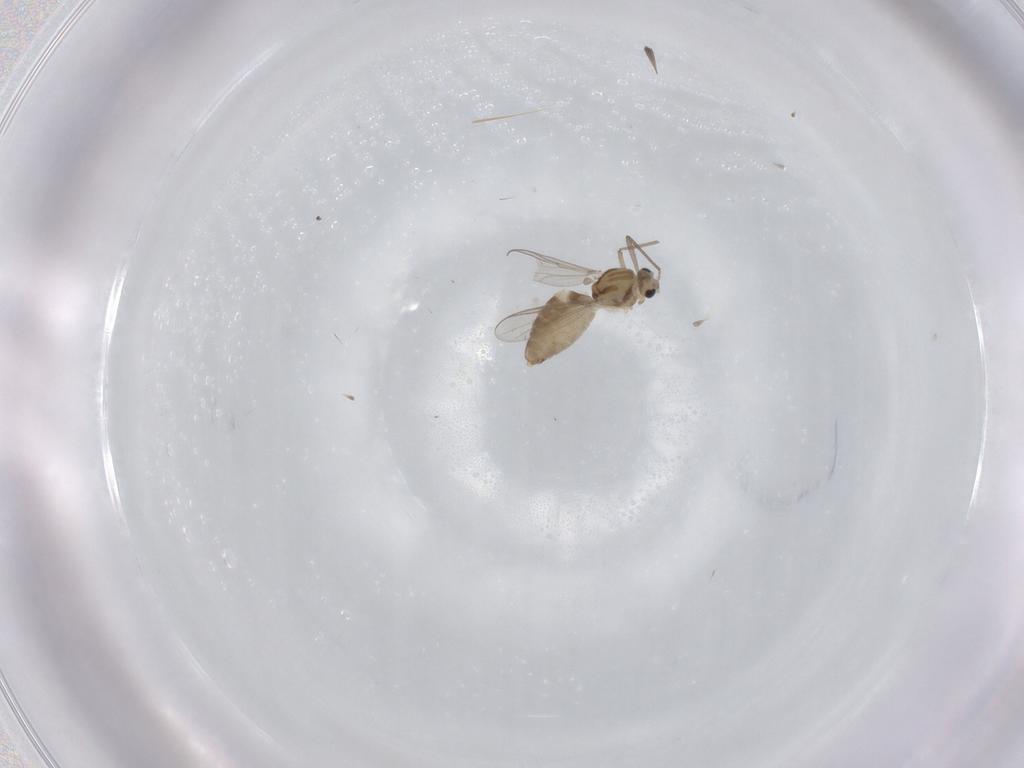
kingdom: Animalia
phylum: Arthropoda
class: Insecta
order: Diptera
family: Chironomidae
